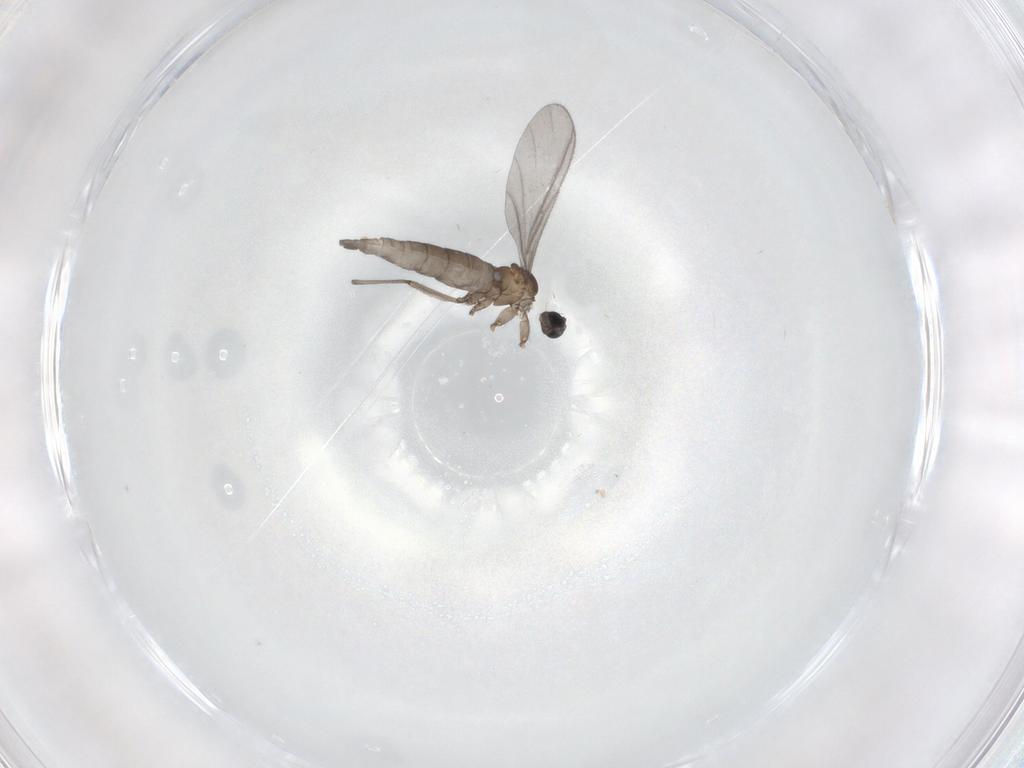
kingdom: Animalia
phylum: Arthropoda
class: Insecta
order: Diptera
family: Sciaridae
